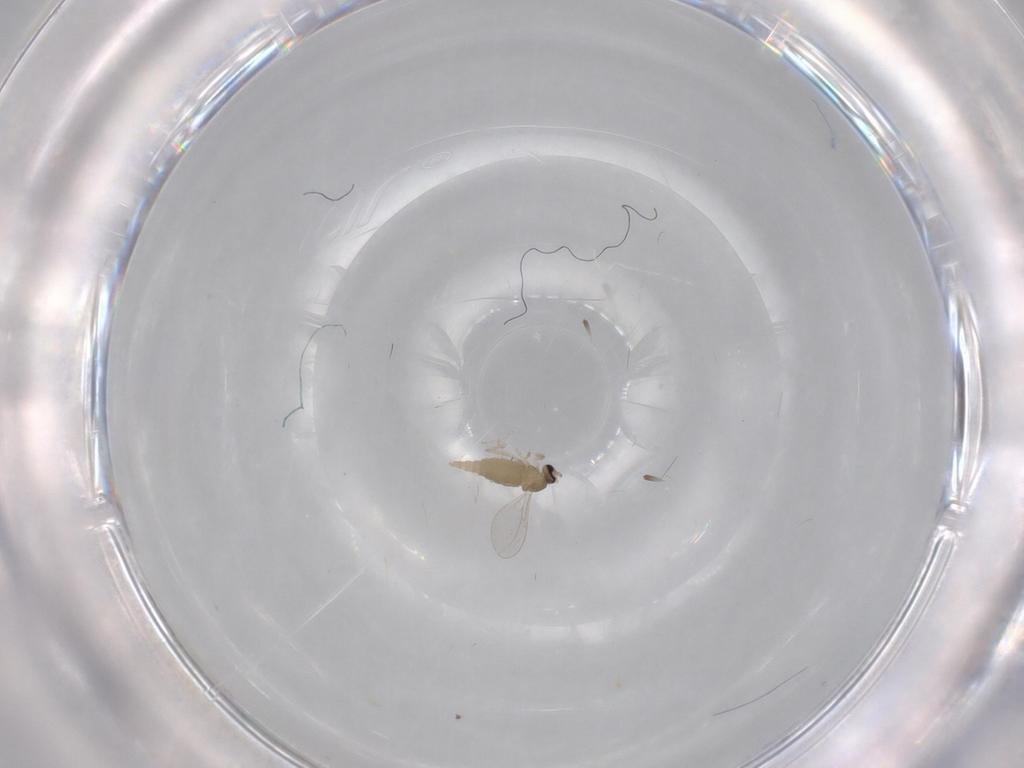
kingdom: Animalia
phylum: Arthropoda
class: Insecta
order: Diptera
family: Cecidomyiidae
